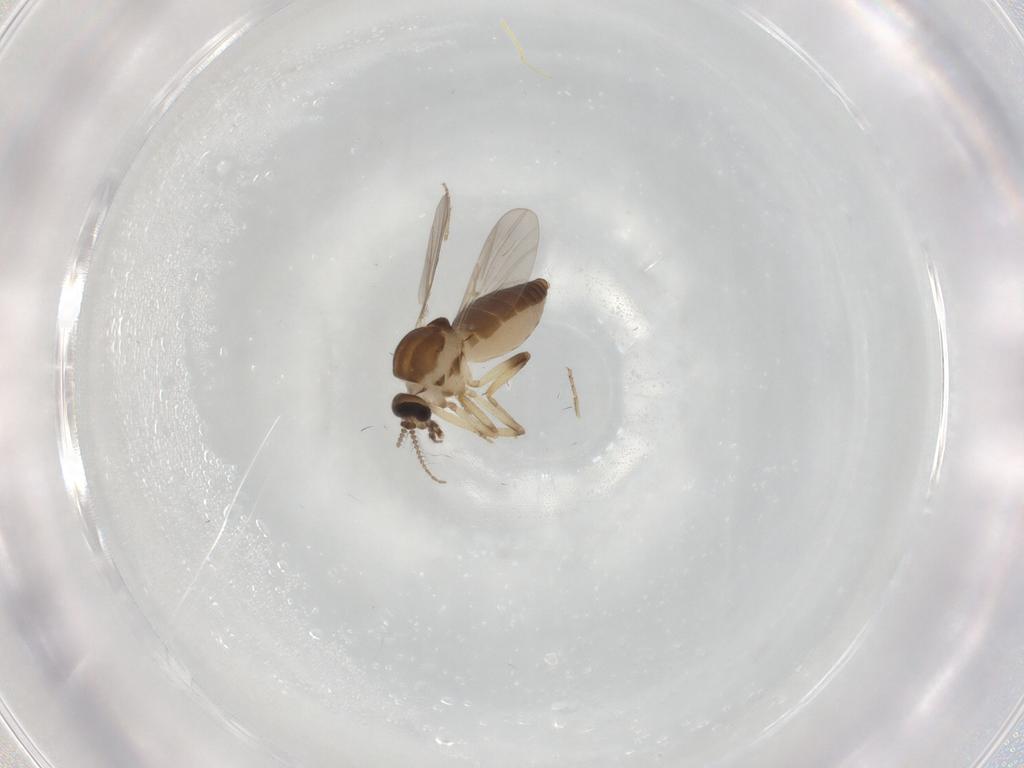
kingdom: Animalia
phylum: Arthropoda
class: Insecta
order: Diptera
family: Ceratopogonidae
